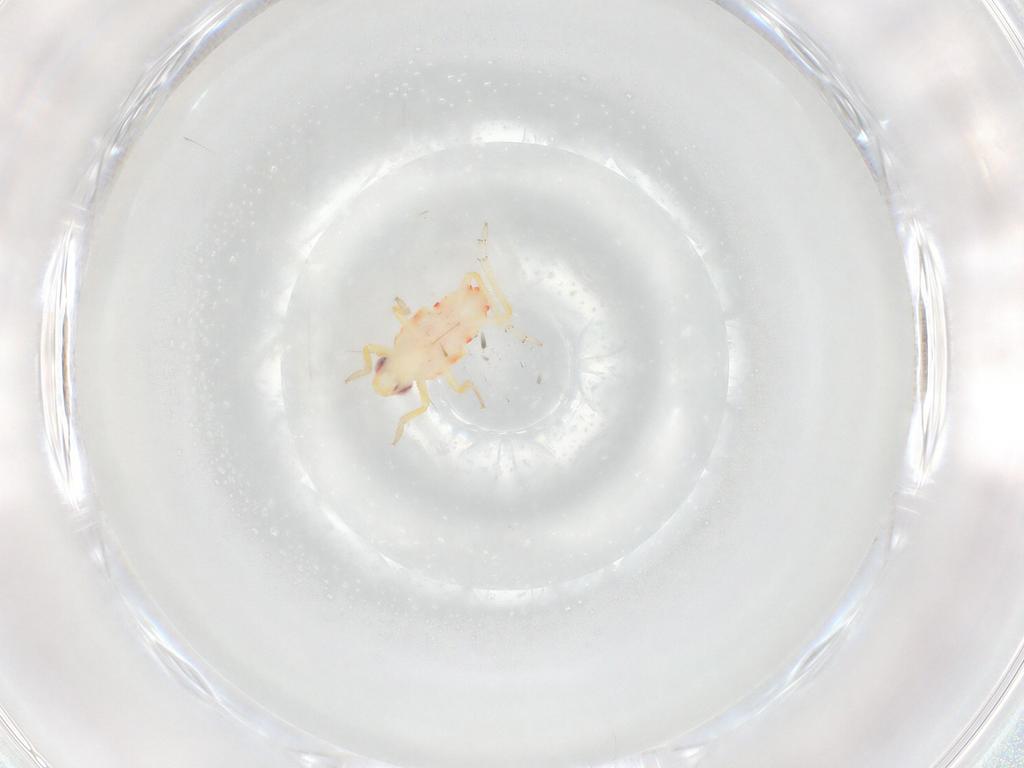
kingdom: Animalia
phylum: Arthropoda
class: Insecta
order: Hemiptera
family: Tropiduchidae
